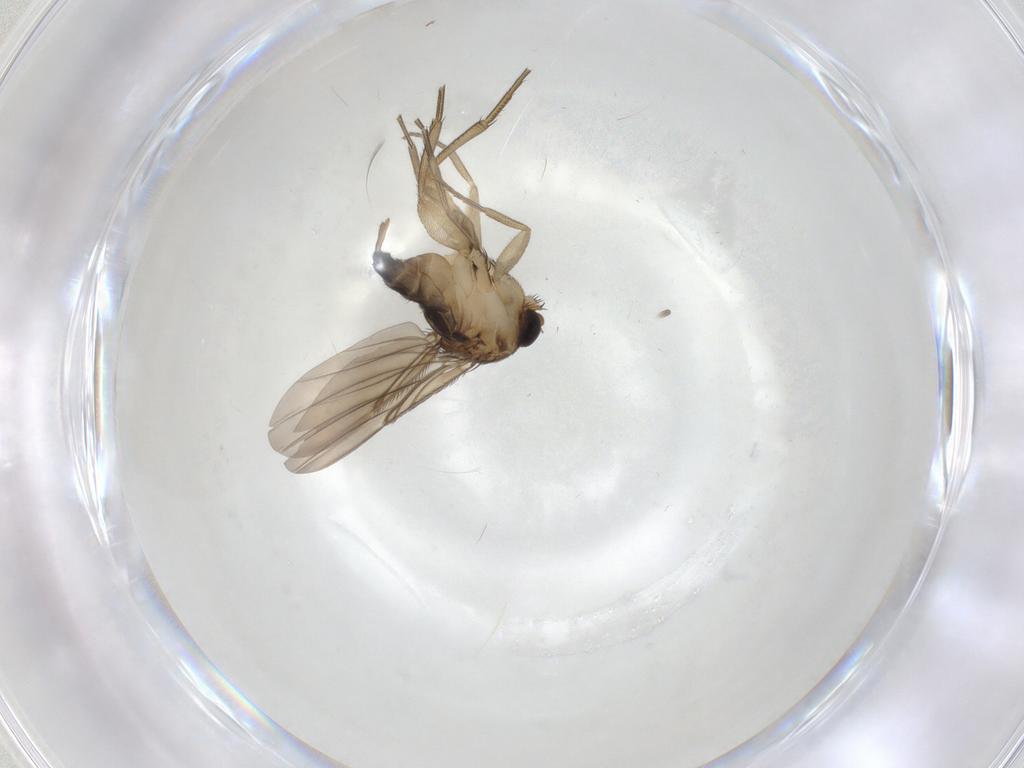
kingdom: Animalia
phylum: Arthropoda
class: Insecta
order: Diptera
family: Phoridae
